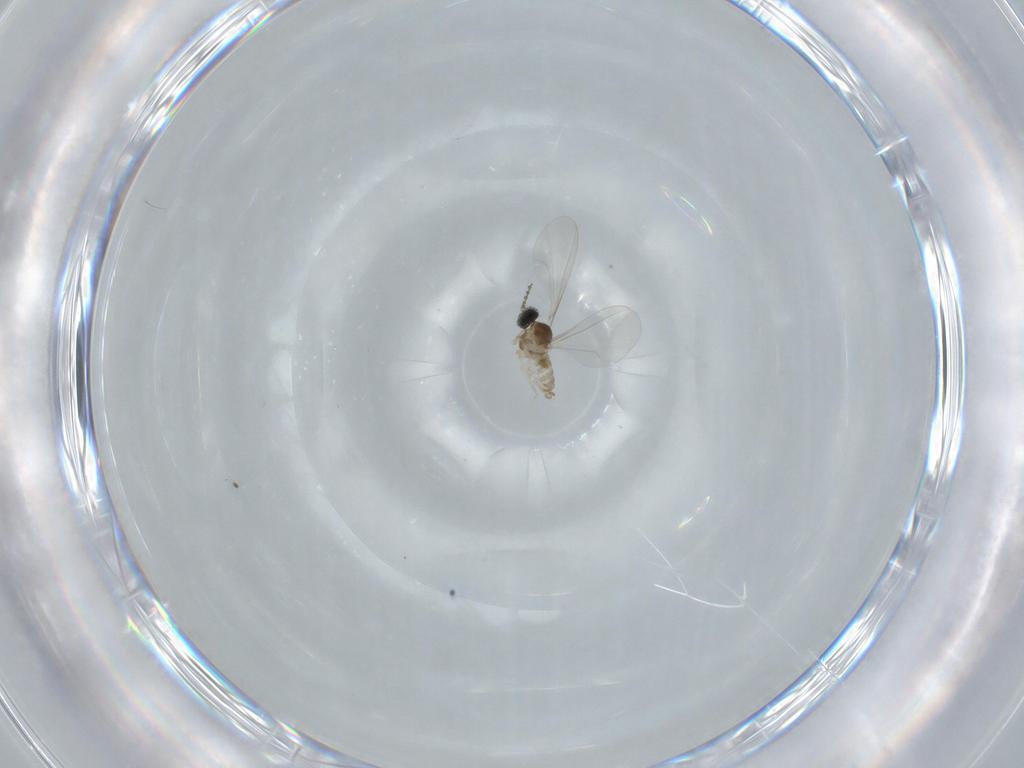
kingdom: Animalia
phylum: Arthropoda
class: Insecta
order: Diptera
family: Cecidomyiidae
